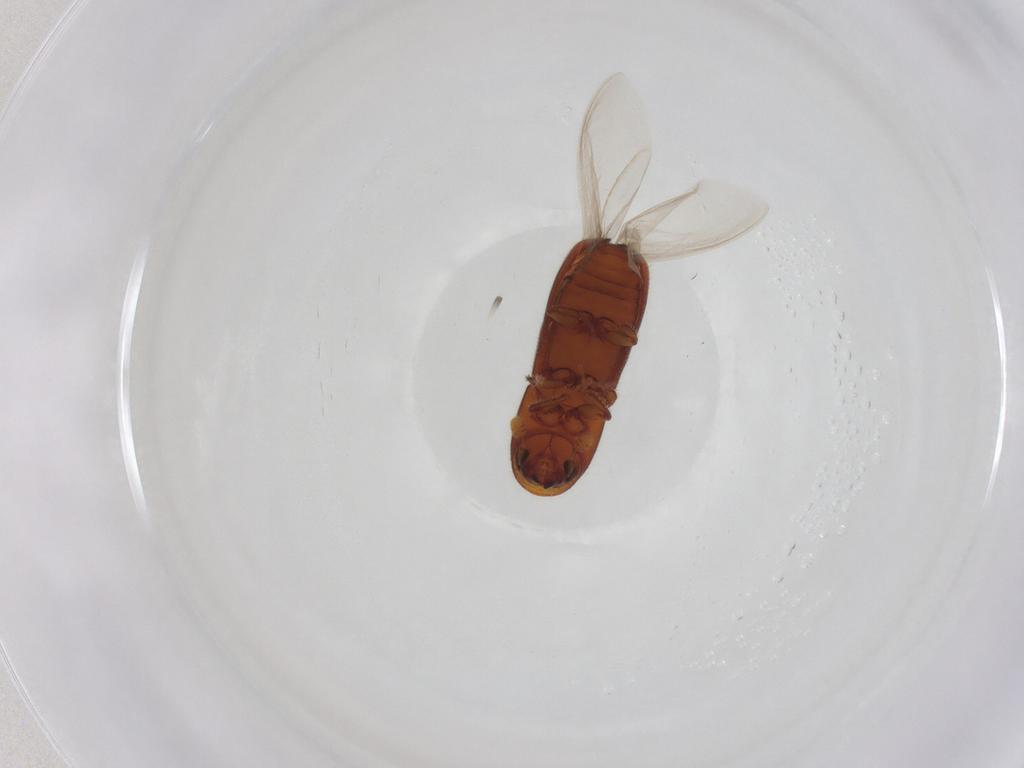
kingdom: Animalia
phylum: Arthropoda
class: Insecta
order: Coleoptera
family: Curculionidae
